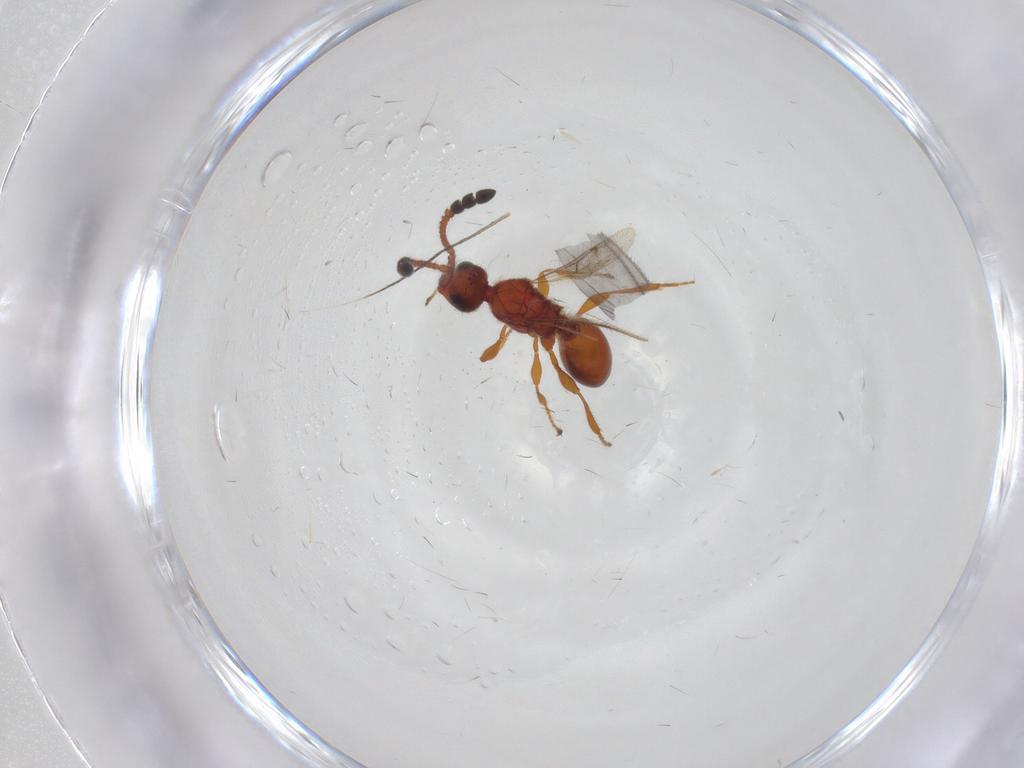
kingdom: Animalia
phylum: Arthropoda
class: Insecta
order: Hymenoptera
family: Diapriidae
